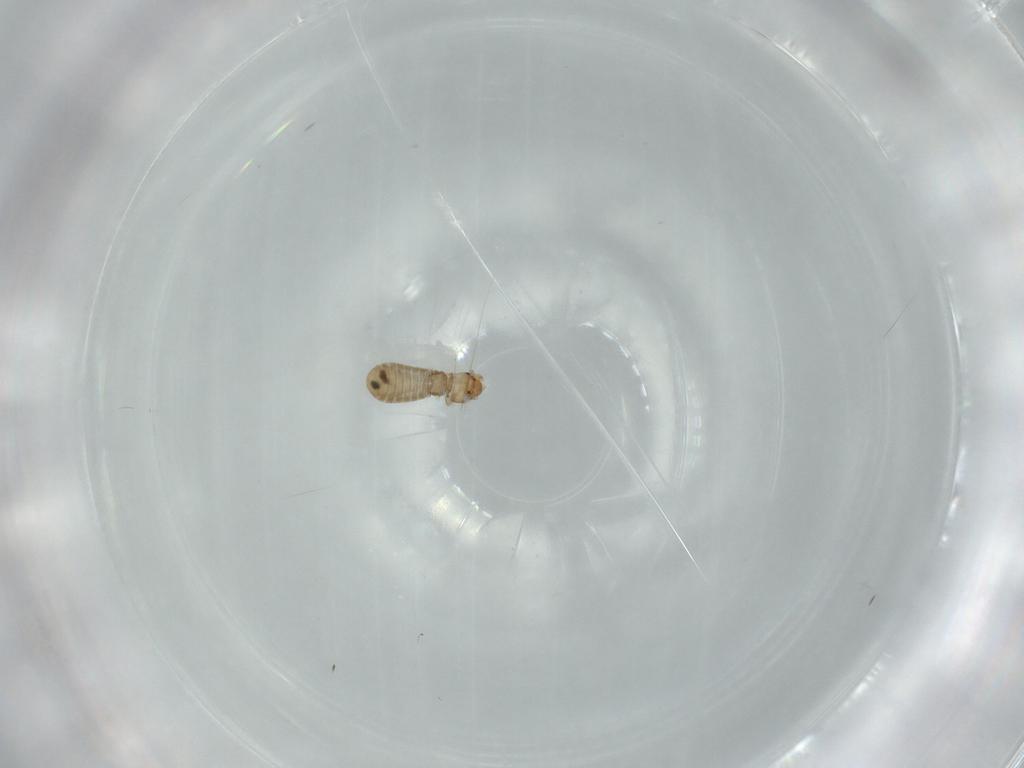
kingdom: Animalia
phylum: Arthropoda
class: Insecta
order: Psocodea
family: Liposcelididae
